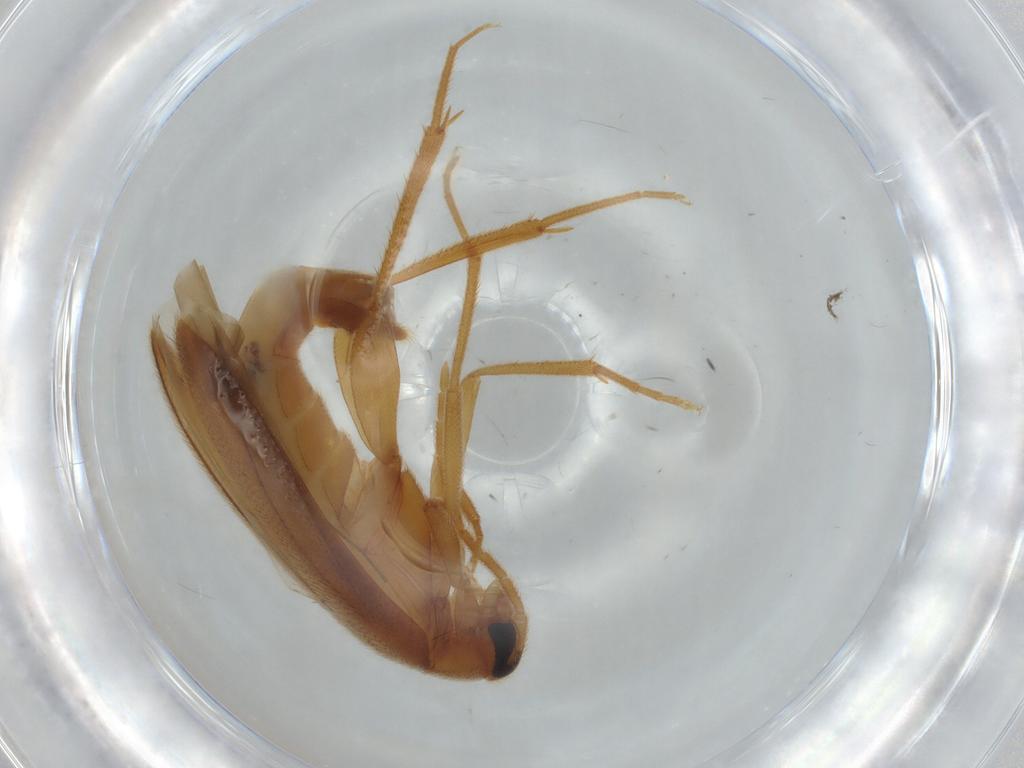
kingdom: Animalia
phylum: Arthropoda
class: Insecta
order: Coleoptera
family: Scraptiidae
